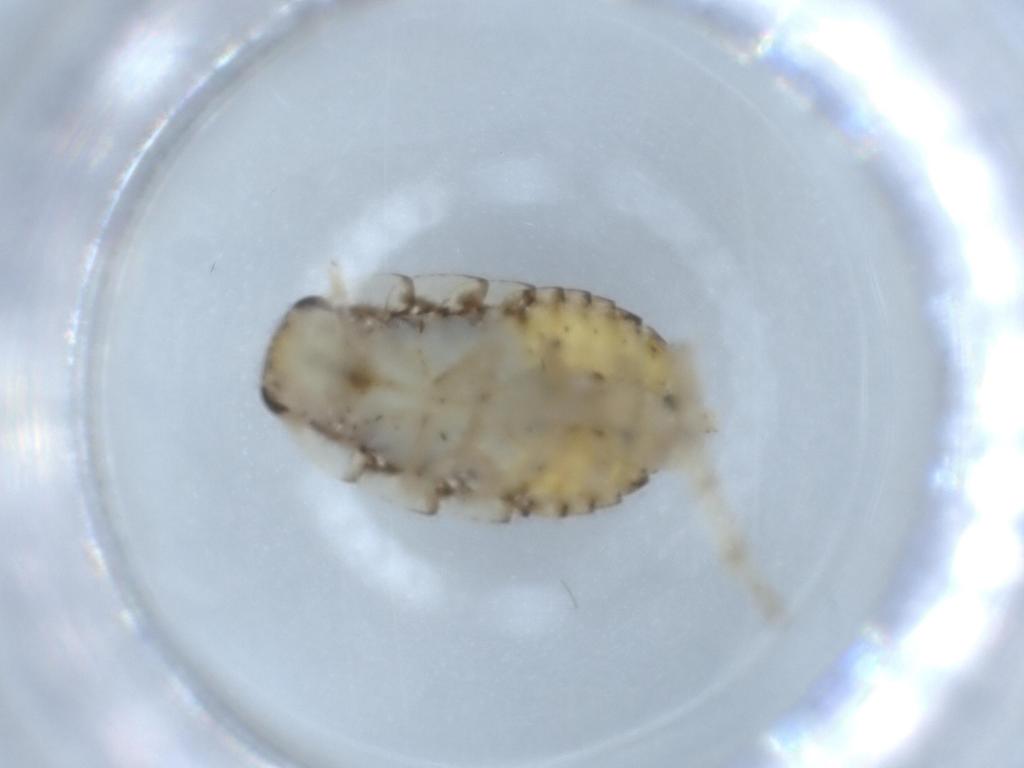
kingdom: Animalia
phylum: Arthropoda
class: Insecta
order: Blattodea
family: Ectobiidae
